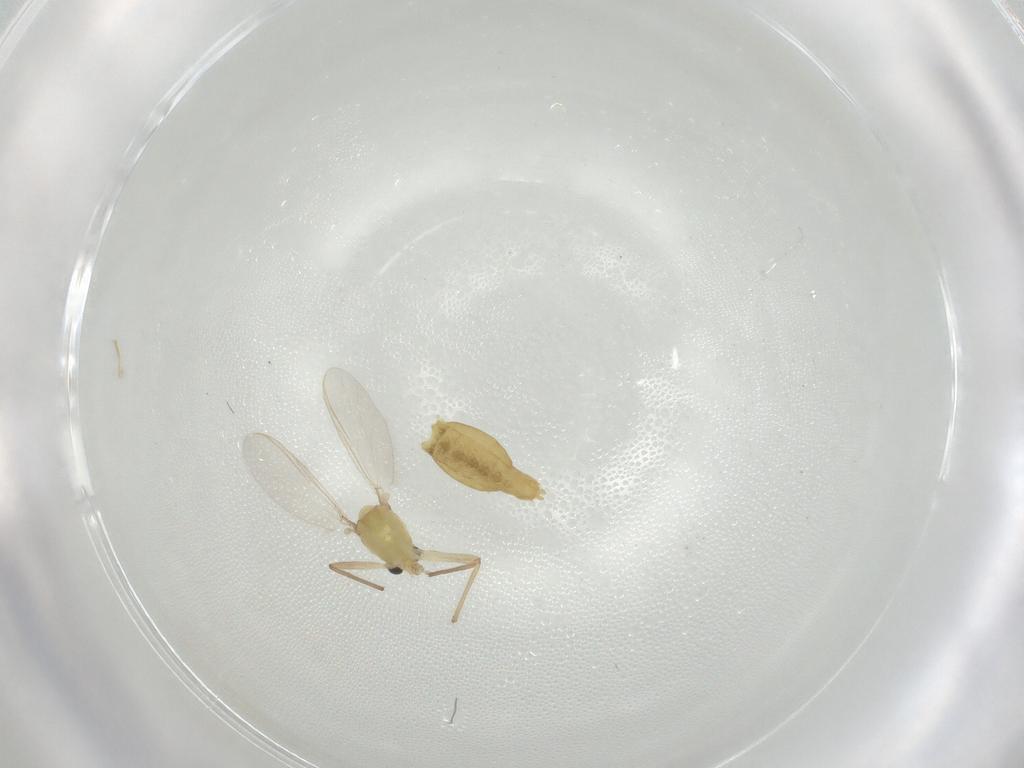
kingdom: Animalia
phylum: Arthropoda
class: Insecta
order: Diptera
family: Chironomidae
